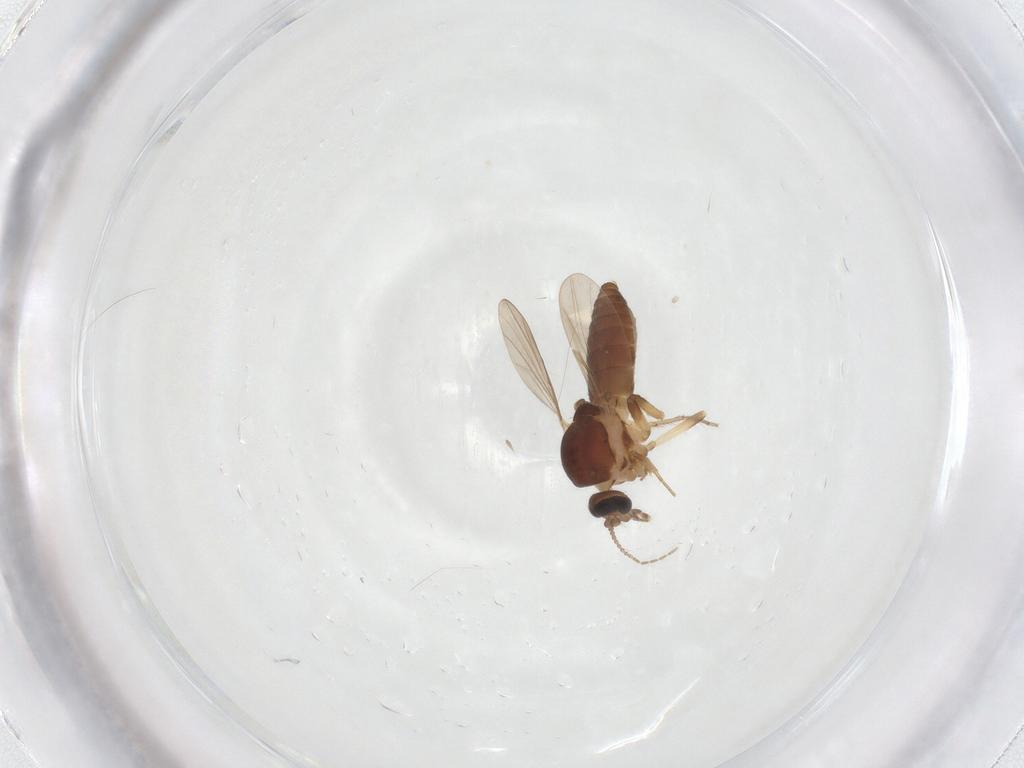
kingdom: Animalia
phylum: Arthropoda
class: Insecta
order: Diptera
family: Ceratopogonidae
